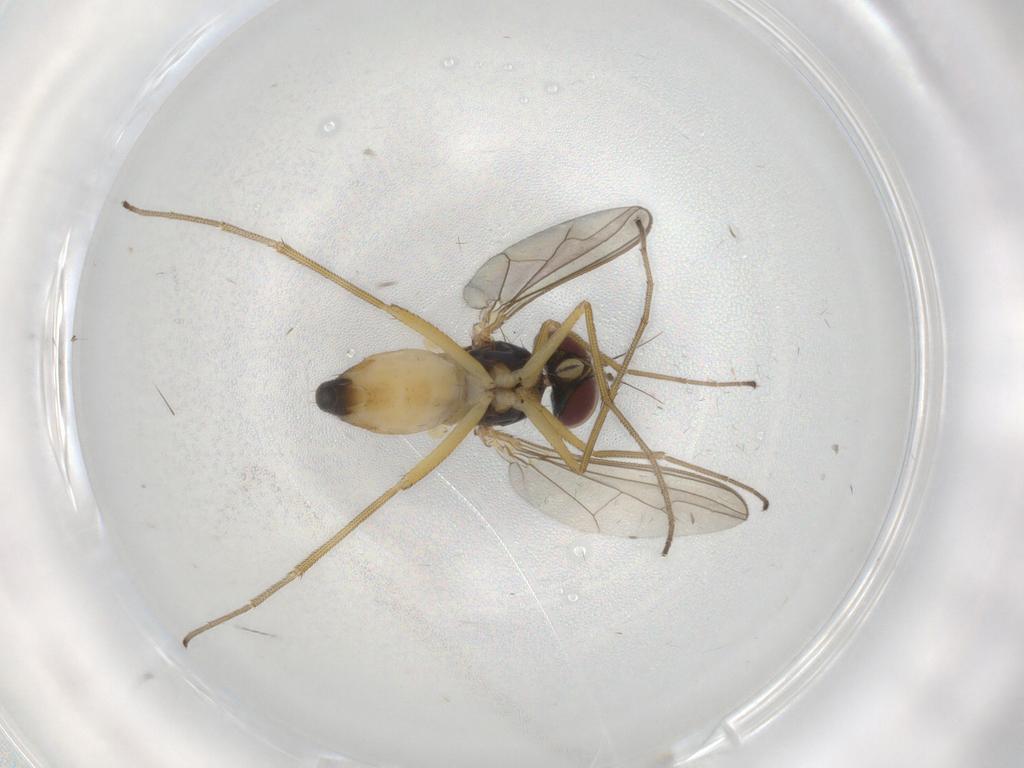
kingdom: Animalia
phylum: Arthropoda
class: Insecta
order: Diptera
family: Dolichopodidae
